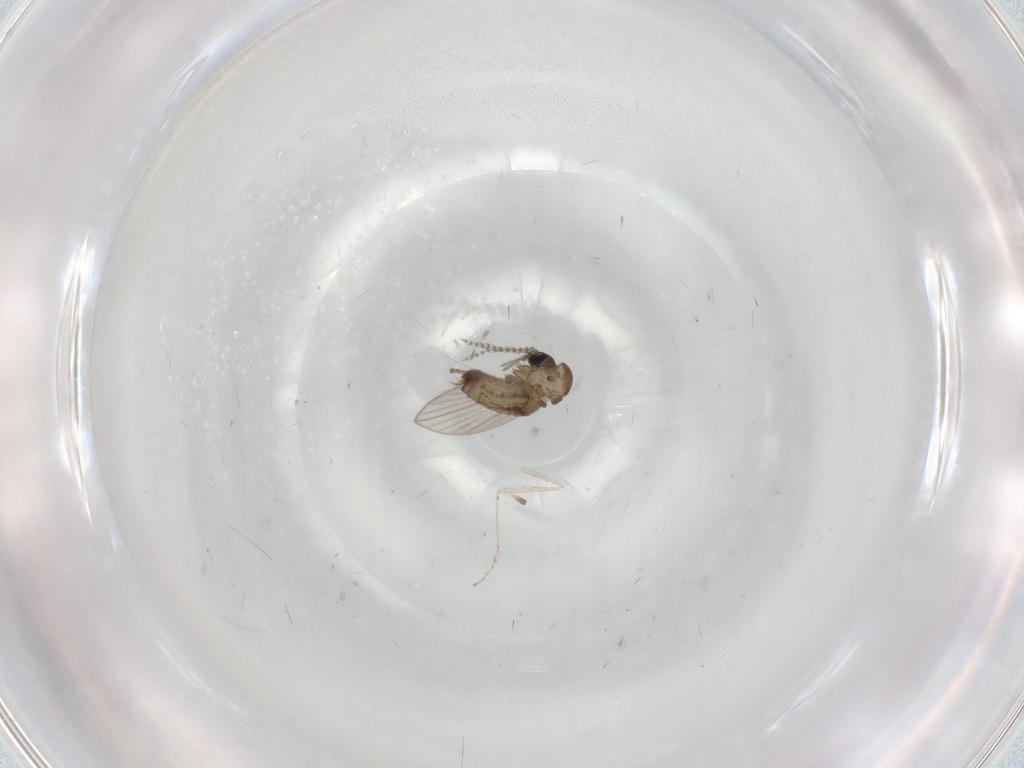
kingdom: Animalia
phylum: Arthropoda
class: Insecta
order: Diptera
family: Psychodidae
